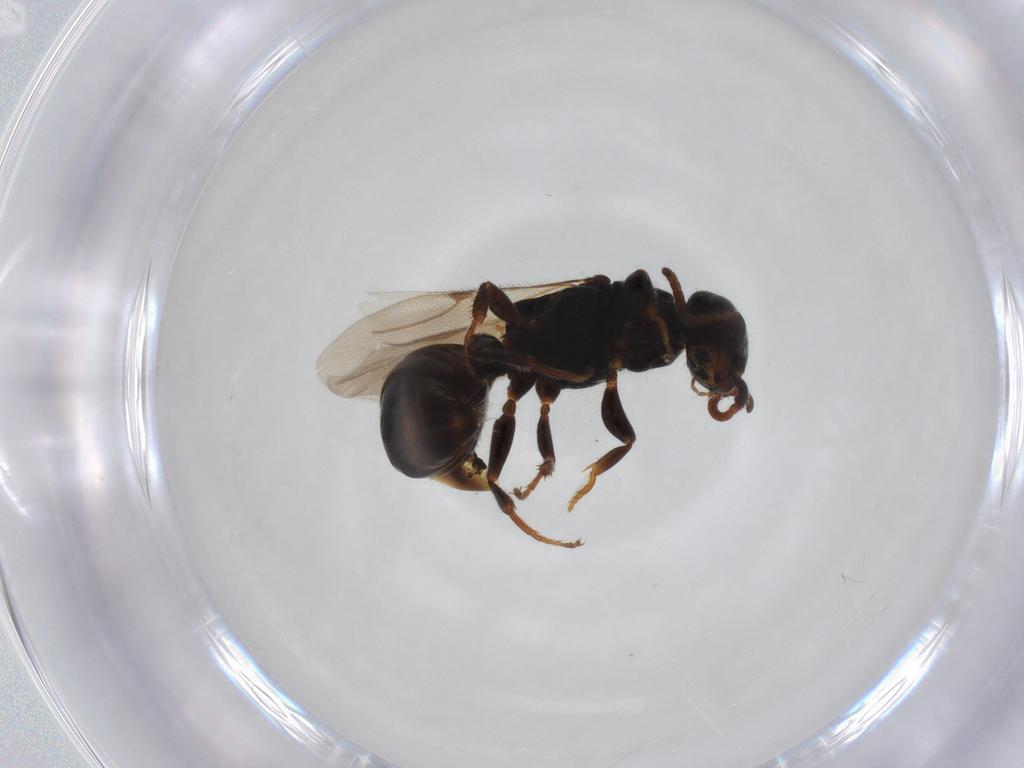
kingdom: Animalia
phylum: Arthropoda
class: Insecta
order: Hymenoptera
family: Bethylidae
